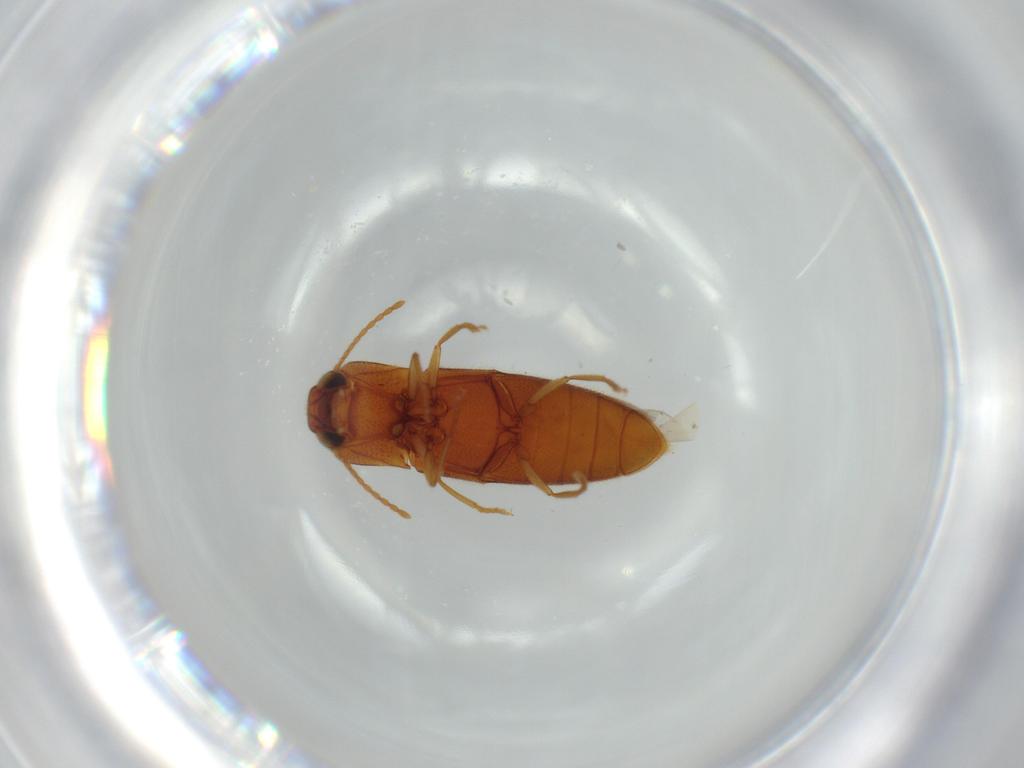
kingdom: Animalia
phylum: Arthropoda
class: Insecta
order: Coleoptera
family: Elateridae
